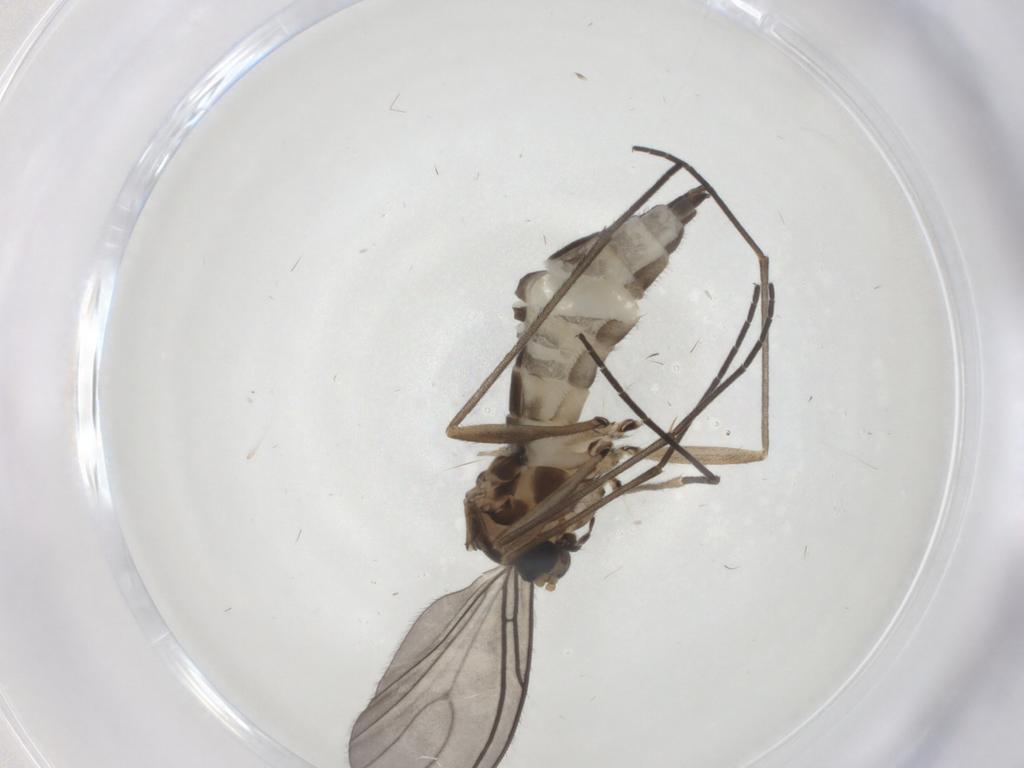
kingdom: Animalia
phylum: Arthropoda
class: Insecta
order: Diptera
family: Sciaridae
